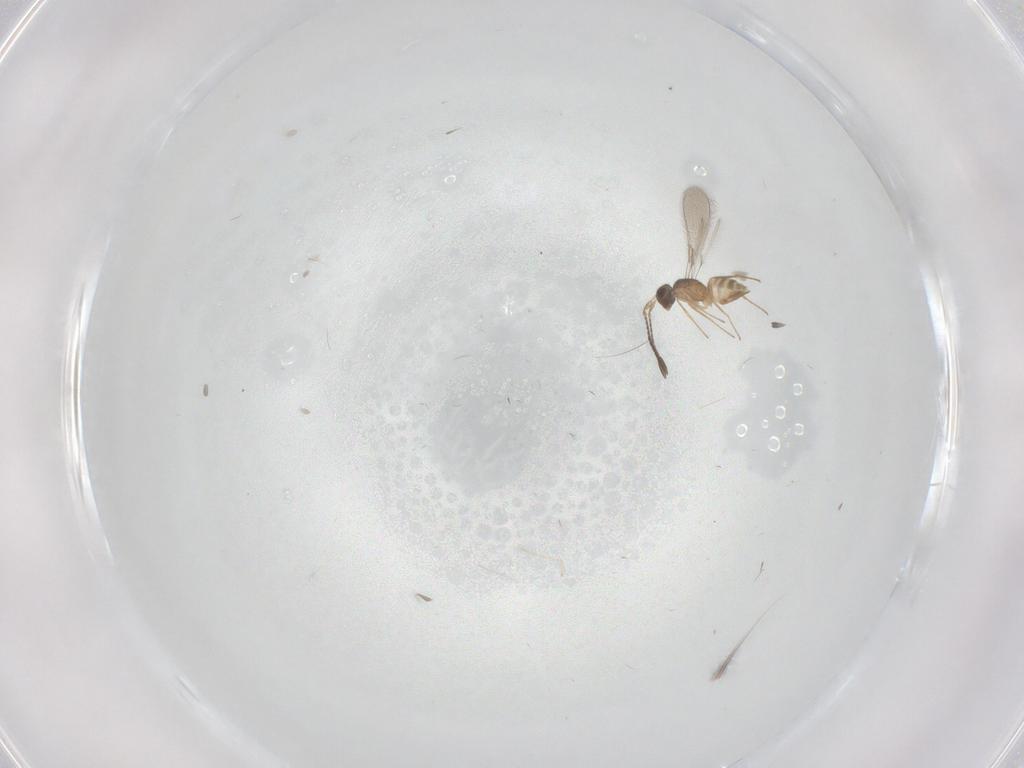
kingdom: Animalia
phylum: Arthropoda
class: Insecta
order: Hymenoptera
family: Mymaridae
